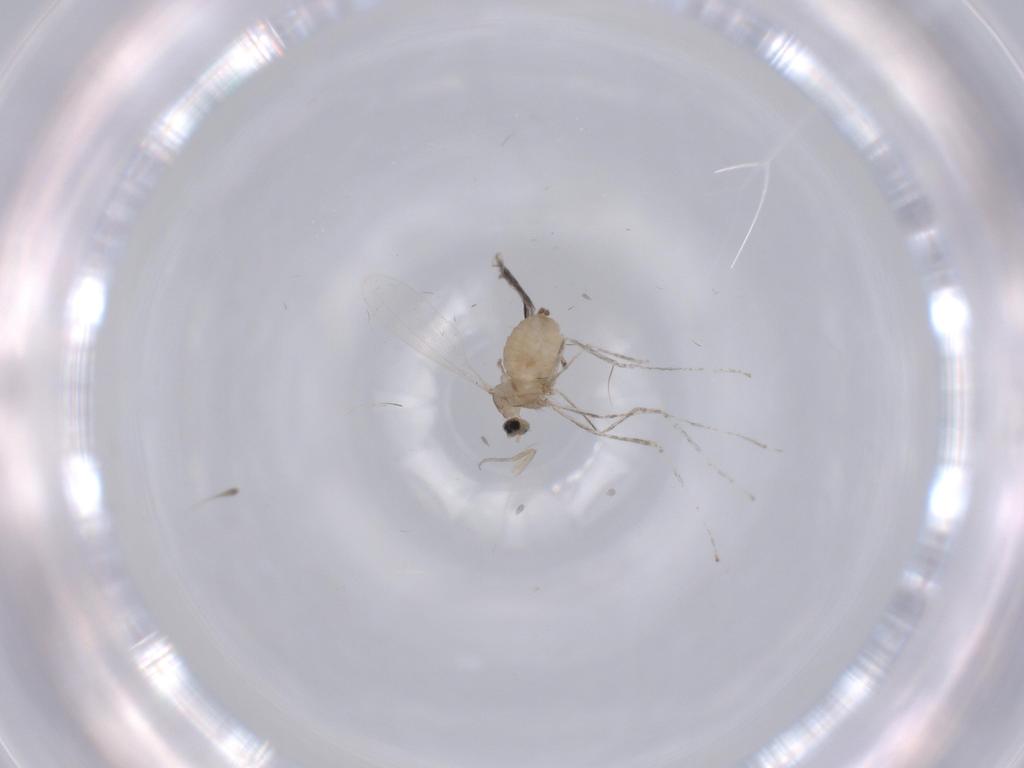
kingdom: Animalia
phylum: Arthropoda
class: Insecta
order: Diptera
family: Cecidomyiidae
